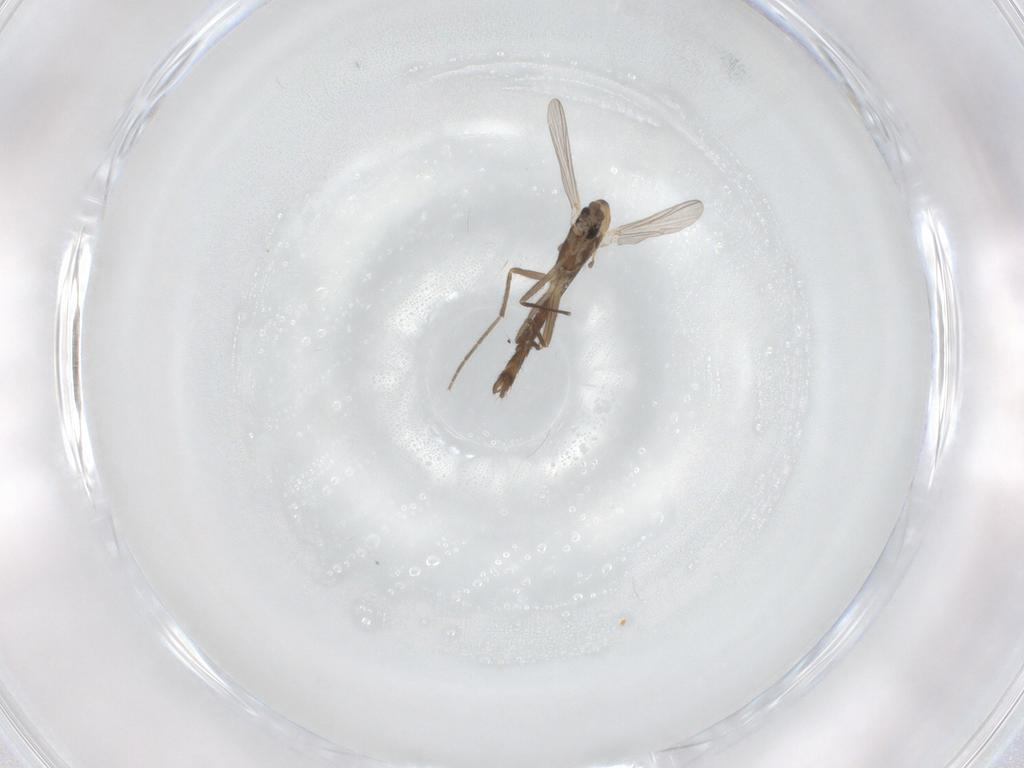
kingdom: Animalia
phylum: Arthropoda
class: Insecta
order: Diptera
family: Chironomidae
